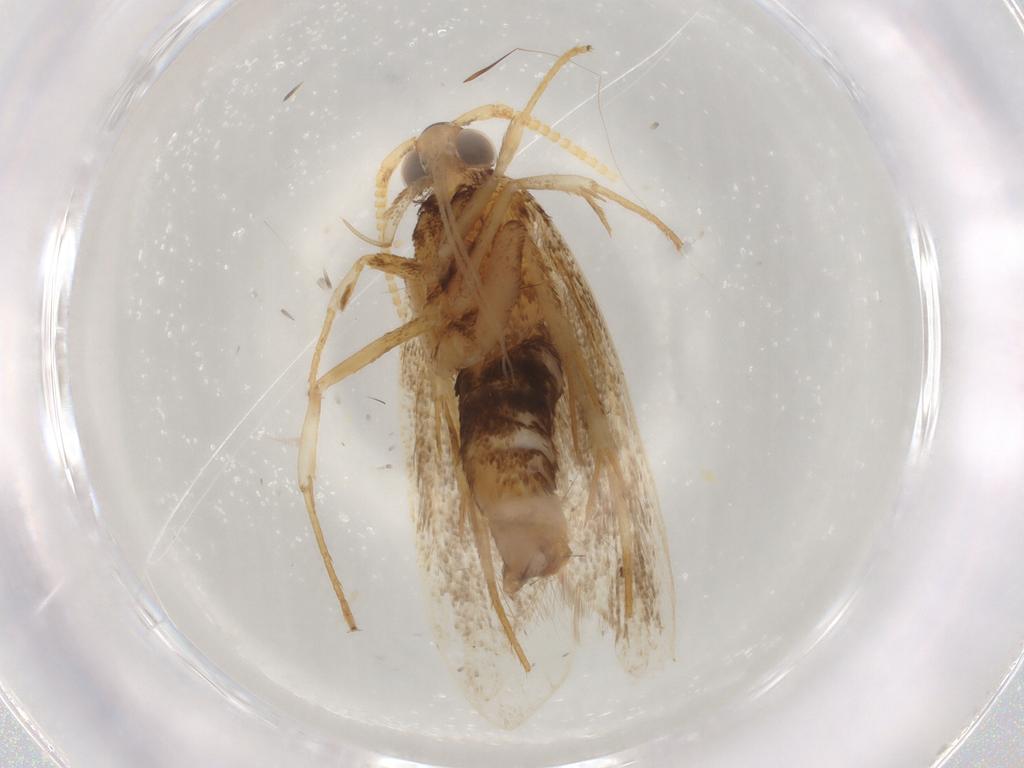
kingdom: Animalia
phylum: Arthropoda
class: Insecta
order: Lepidoptera
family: Lecithoceridae
